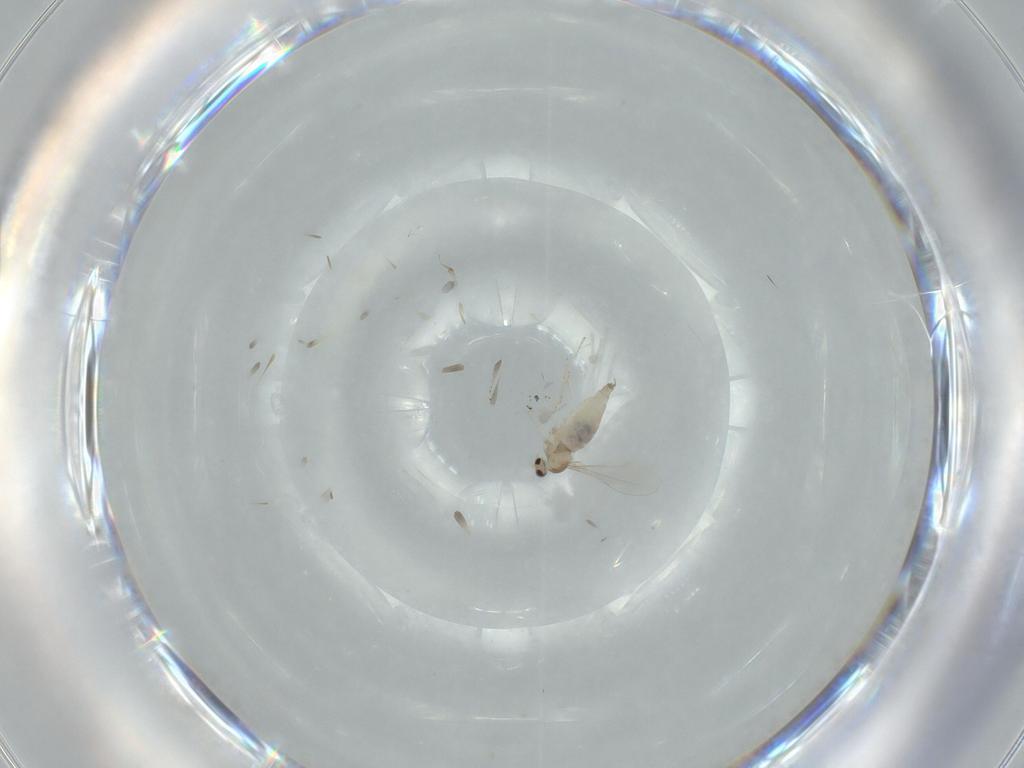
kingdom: Animalia
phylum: Arthropoda
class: Insecta
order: Diptera
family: Cecidomyiidae
